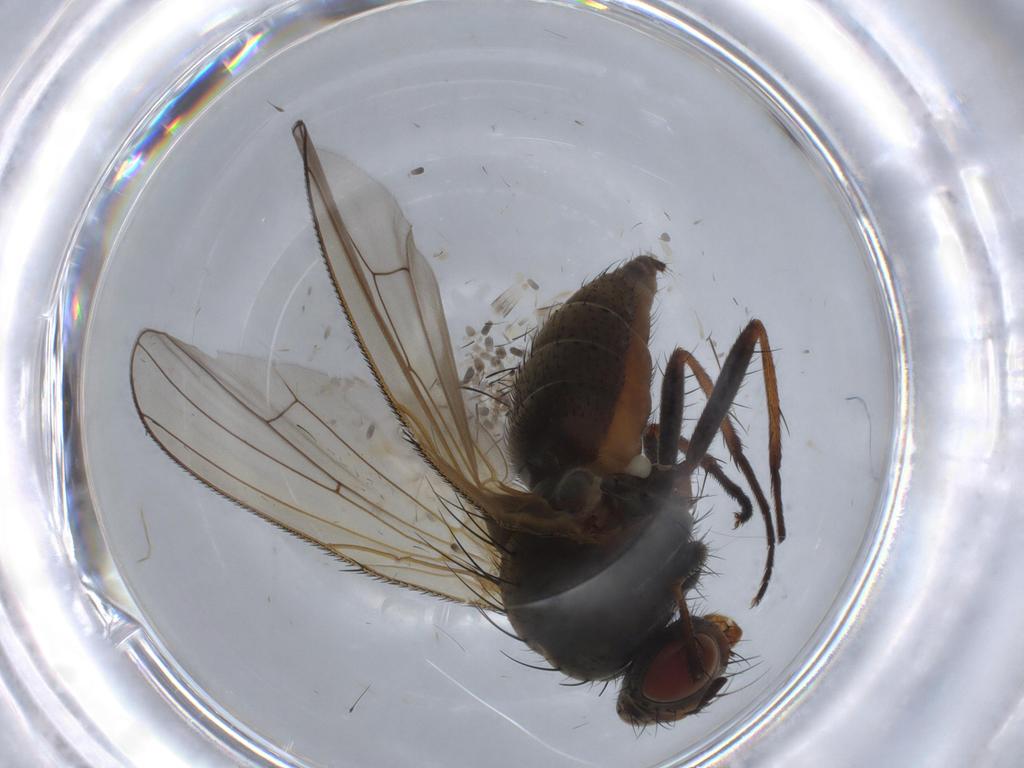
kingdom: Animalia
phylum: Arthropoda
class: Insecta
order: Diptera
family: Anthomyiidae
